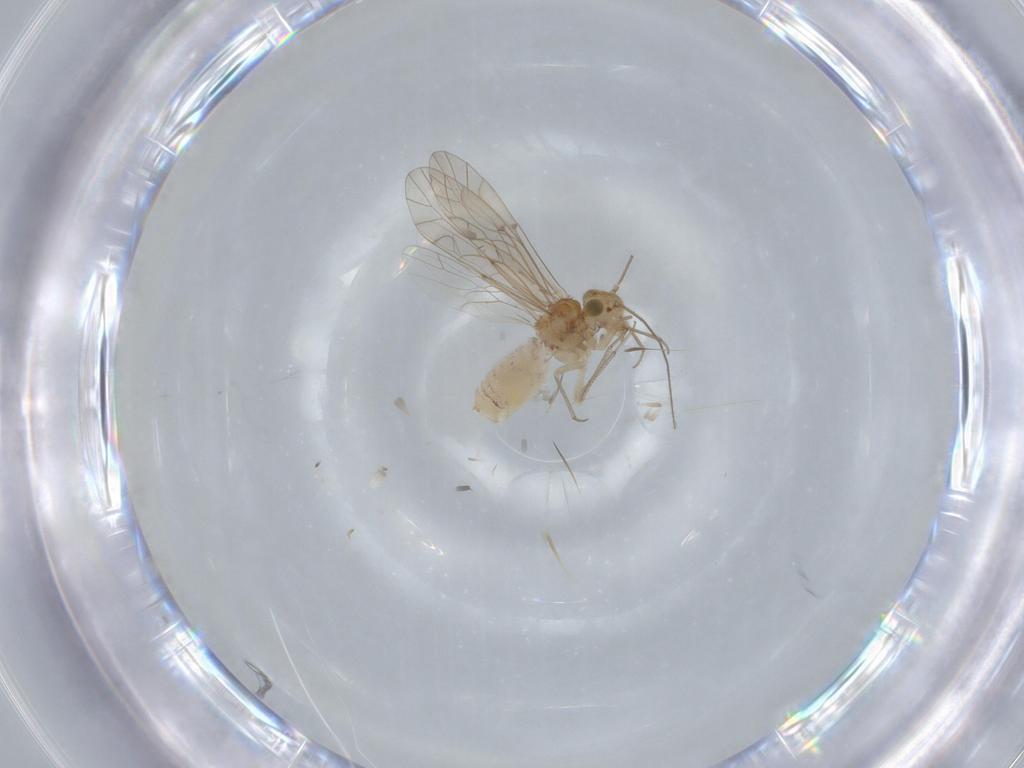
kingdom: Animalia
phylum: Arthropoda
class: Insecta
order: Psocodea
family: Lachesillidae
